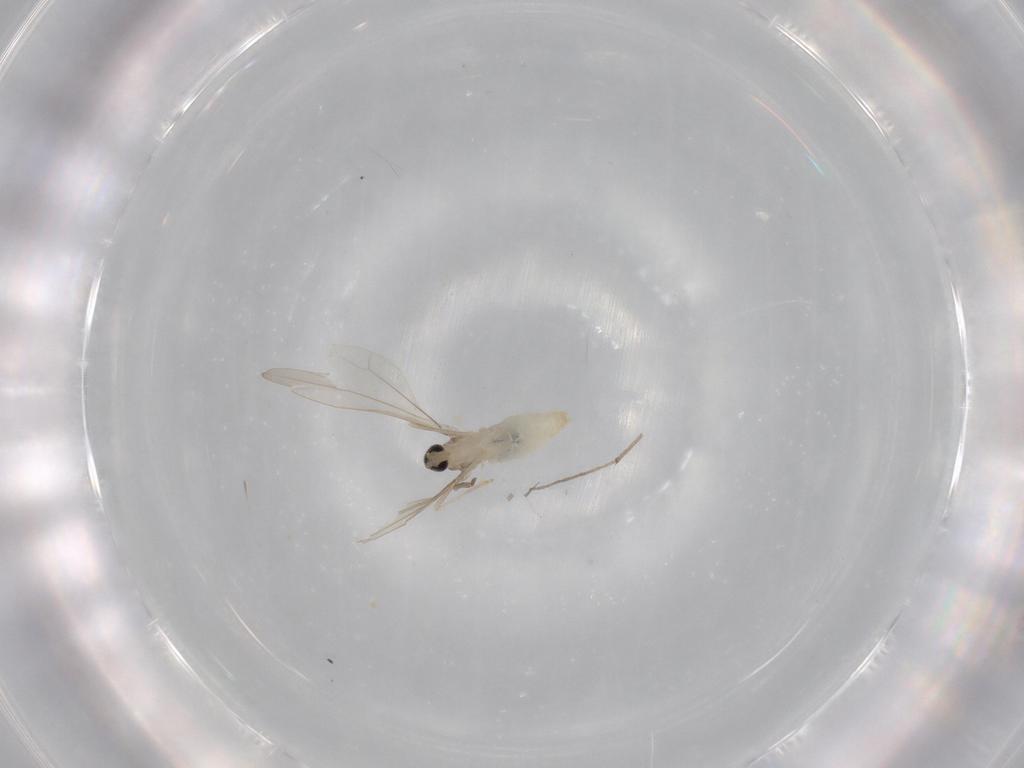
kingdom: Animalia
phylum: Arthropoda
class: Insecta
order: Diptera
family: Cecidomyiidae
